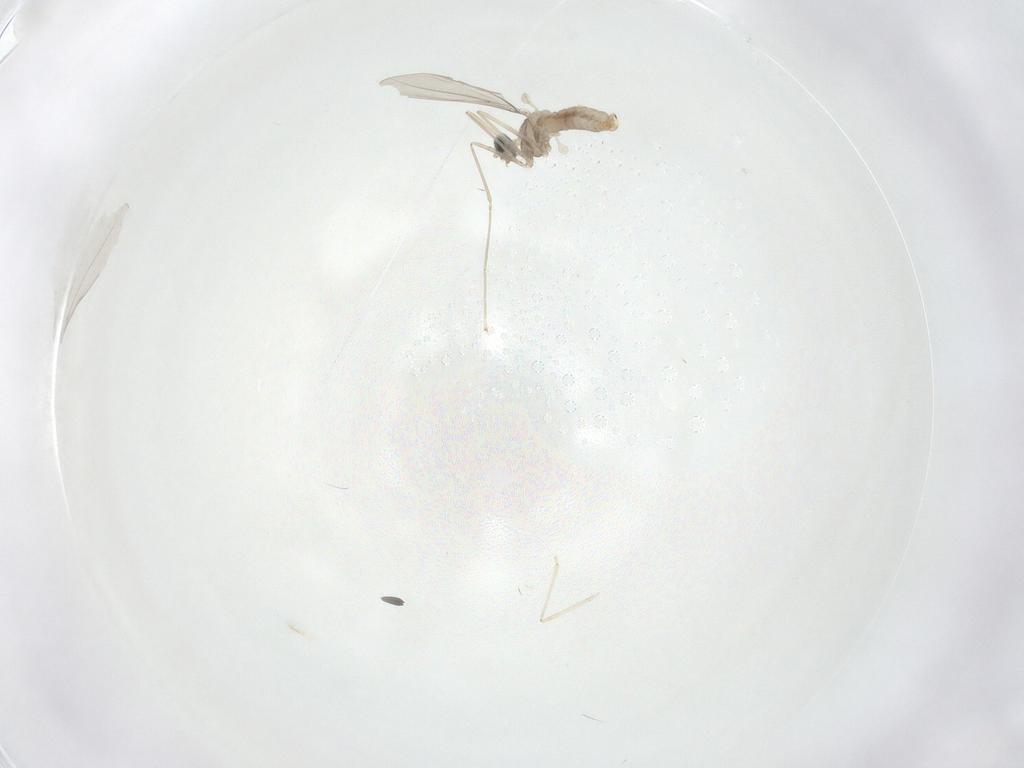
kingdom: Animalia
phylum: Arthropoda
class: Insecta
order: Diptera
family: Cecidomyiidae
